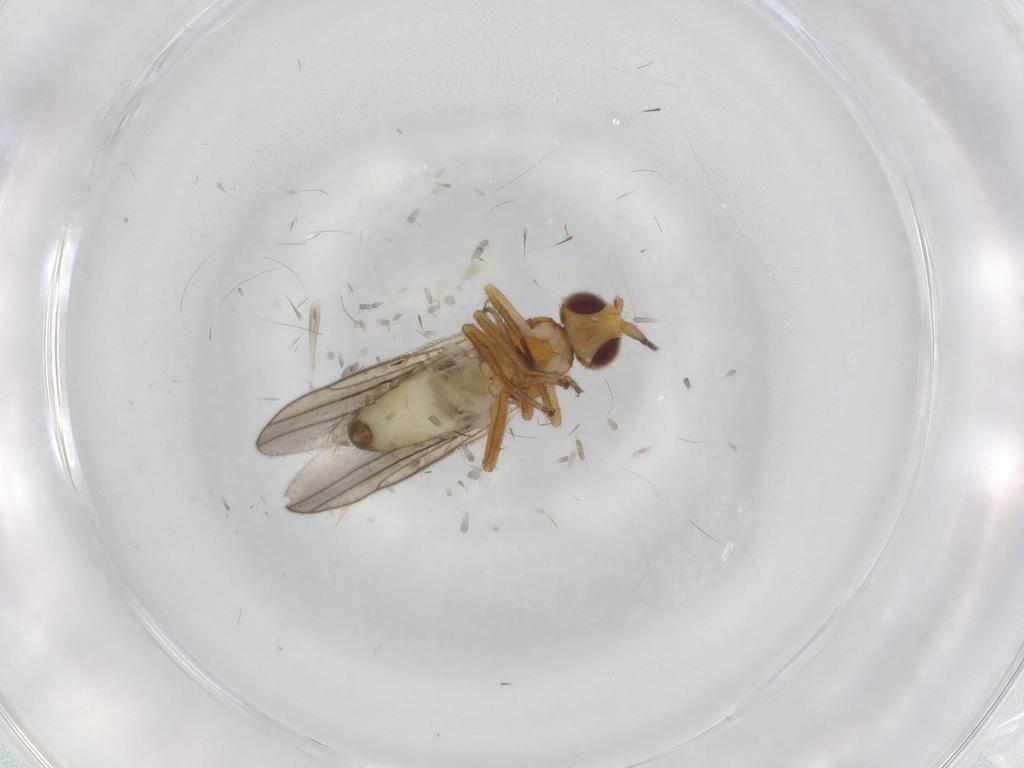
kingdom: Animalia
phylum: Arthropoda
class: Insecta
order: Diptera
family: Chloropidae
